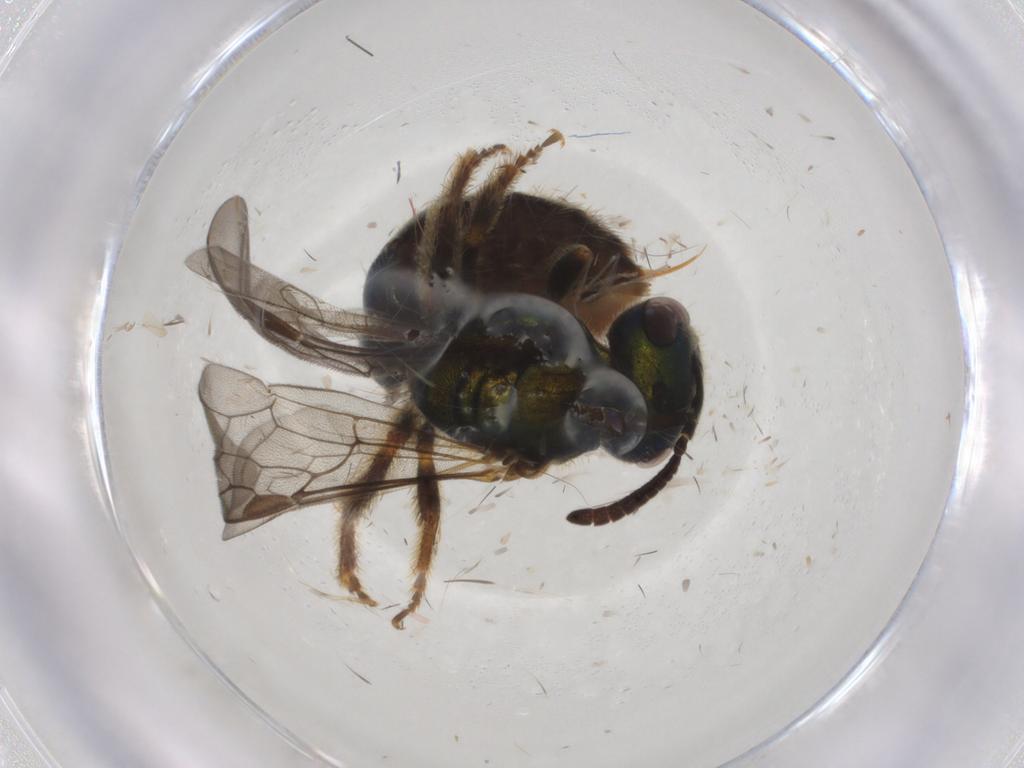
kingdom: Animalia
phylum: Arthropoda
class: Insecta
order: Hymenoptera
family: Halictidae
